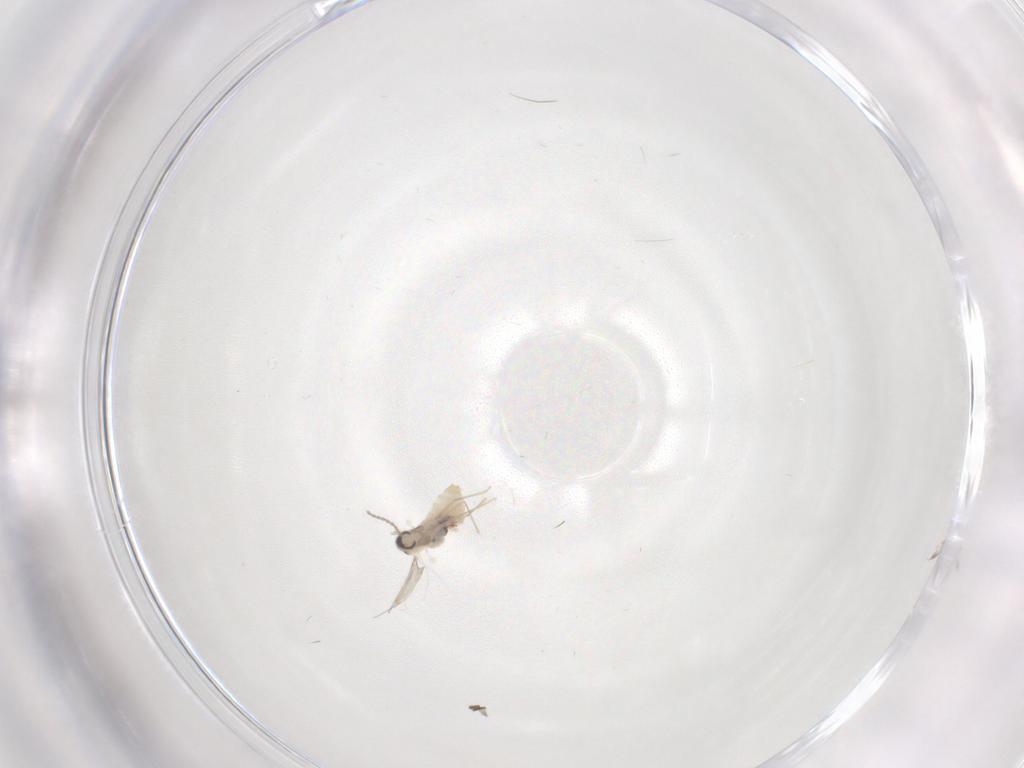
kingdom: Animalia
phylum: Arthropoda
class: Insecta
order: Diptera
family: Cecidomyiidae
